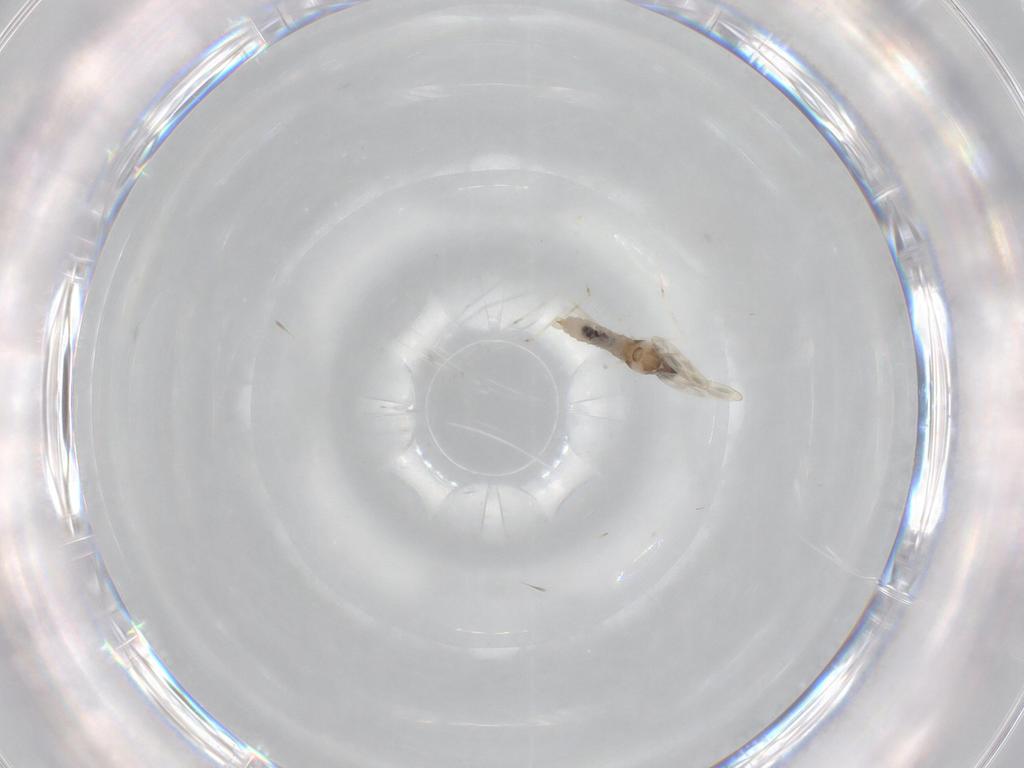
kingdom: Animalia
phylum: Arthropoda
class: Insecta
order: Diptera
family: Cecidomyiidae
